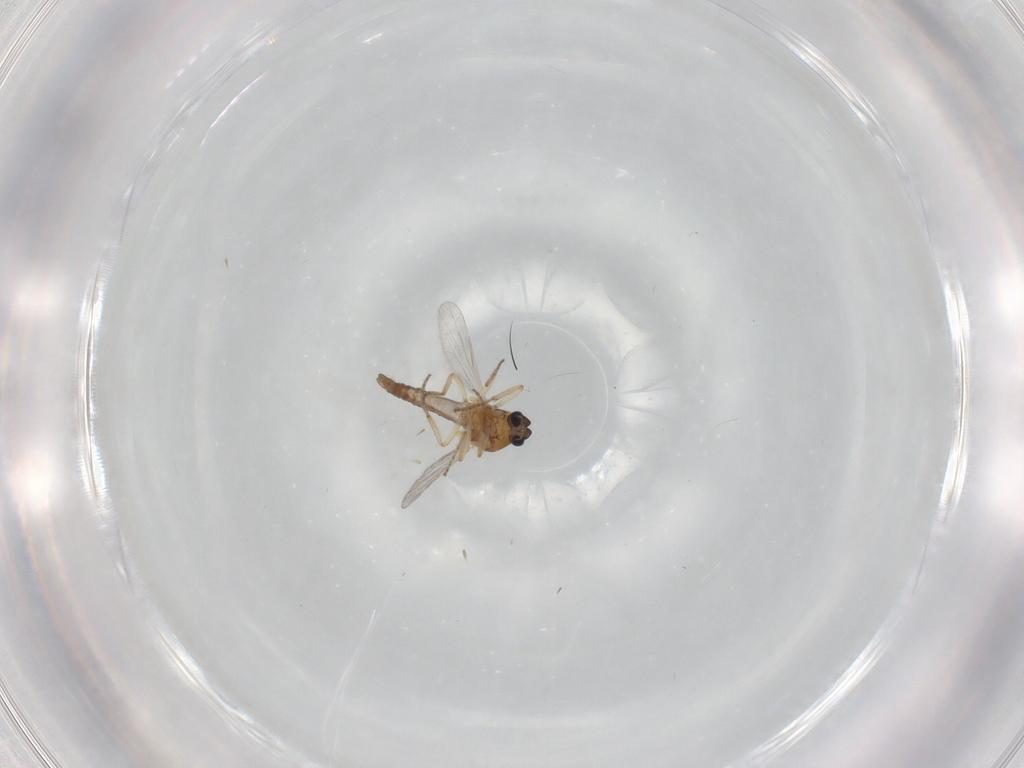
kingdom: Animalia
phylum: Arthropoda
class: Insecta
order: Diptera
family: Ceratopogonidae
